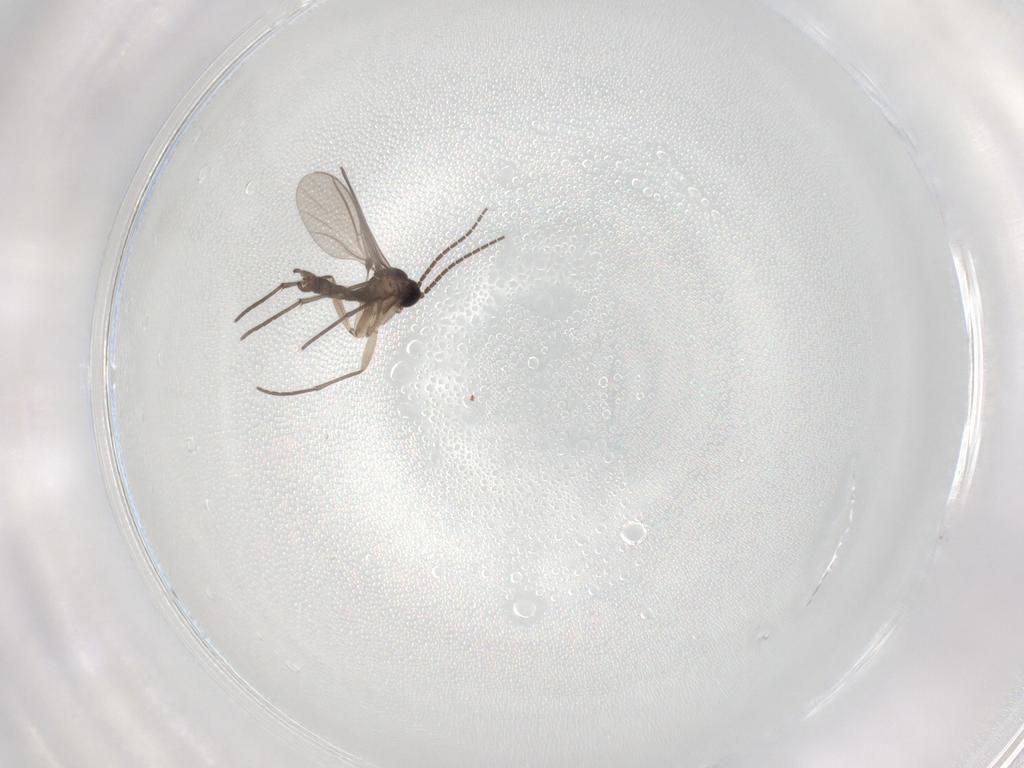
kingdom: Animalia
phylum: Arthropoda
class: Insecta
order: Diptera
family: Sciaridae
